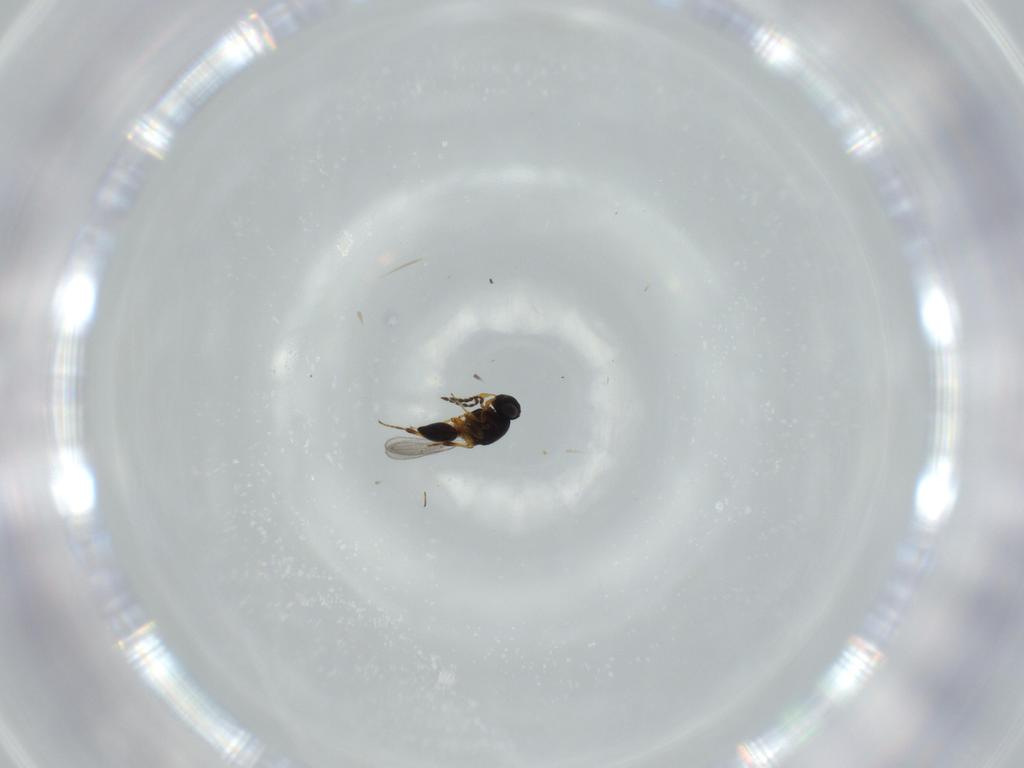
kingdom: Animalia
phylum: Arthropoda
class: Insecta
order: Hymenoptera
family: Platygastridae
